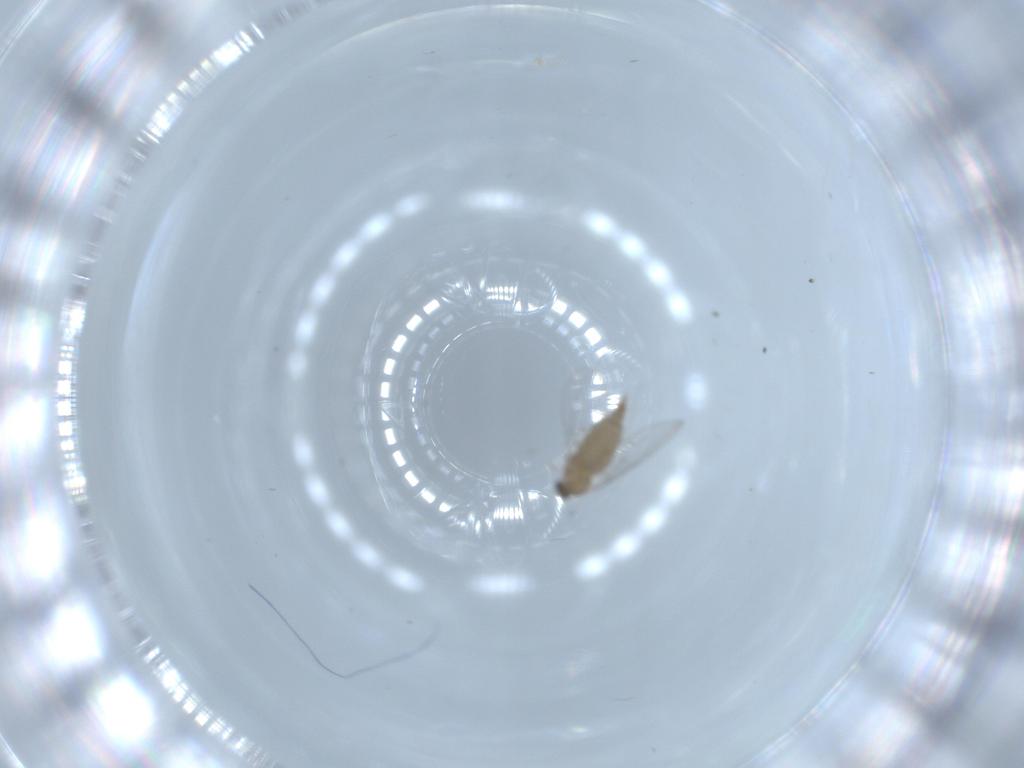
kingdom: Animalia
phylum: Arthropoda
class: Insecta
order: Diptera
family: Cecidomyiidae
